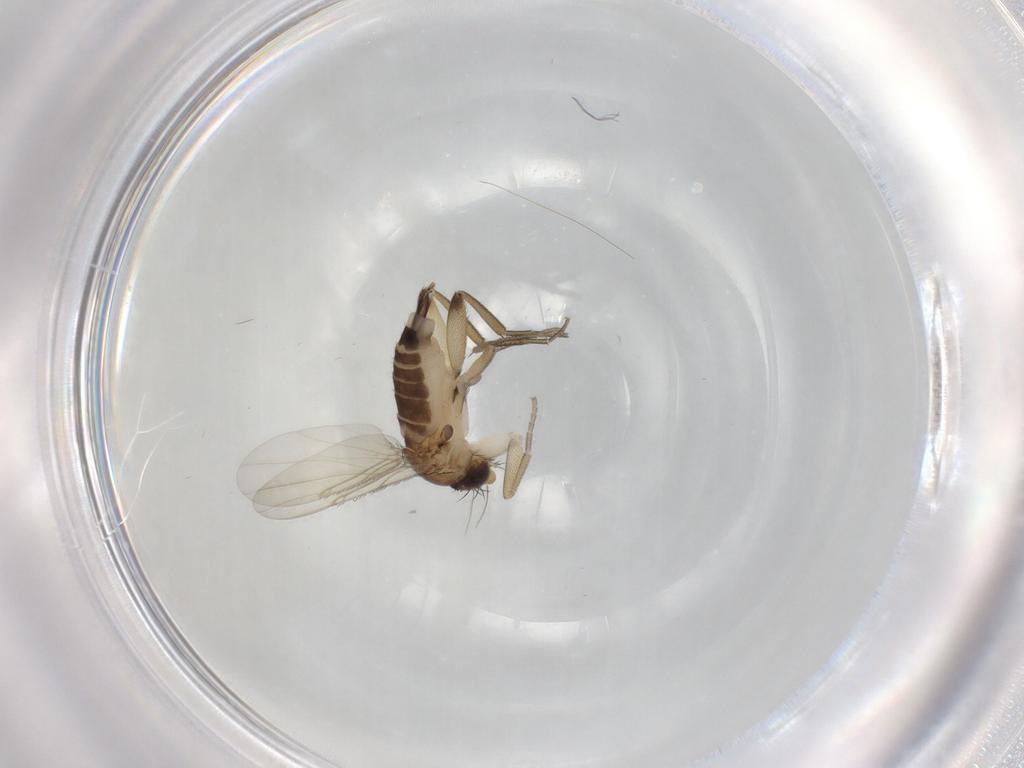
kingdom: Animalia
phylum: Arthropoda
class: Insecta
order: Diptera
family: Phoridae
